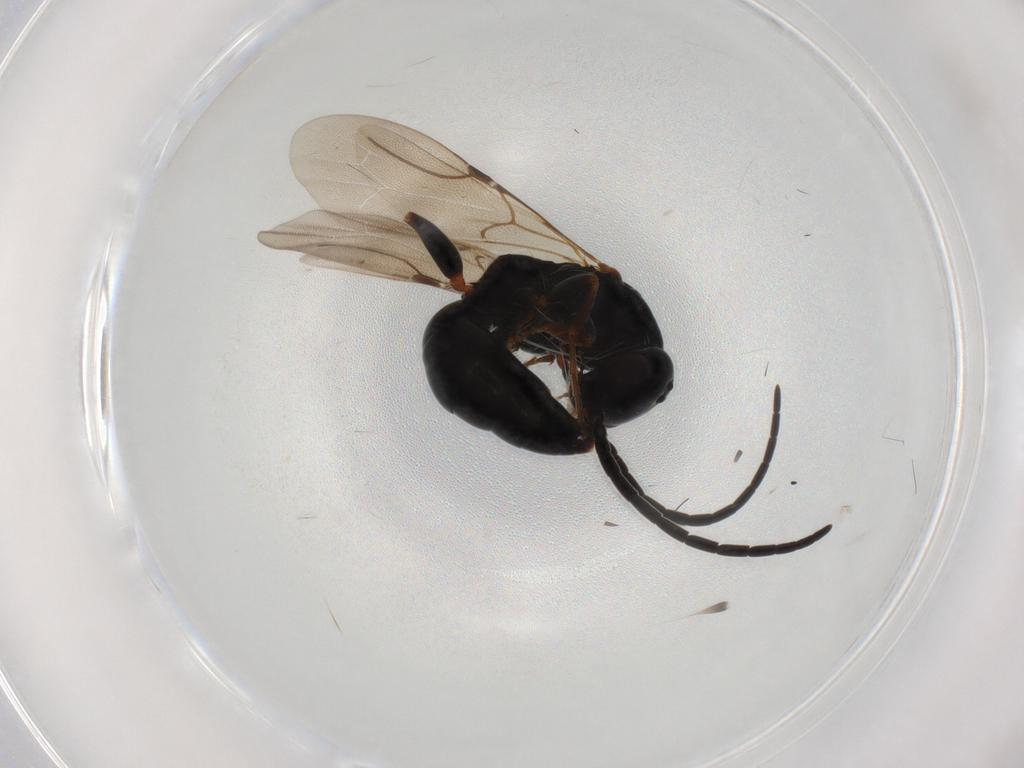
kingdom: Animalia
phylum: Arthropoda
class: Insecta
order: Hymenoptera
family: Bethylidae
